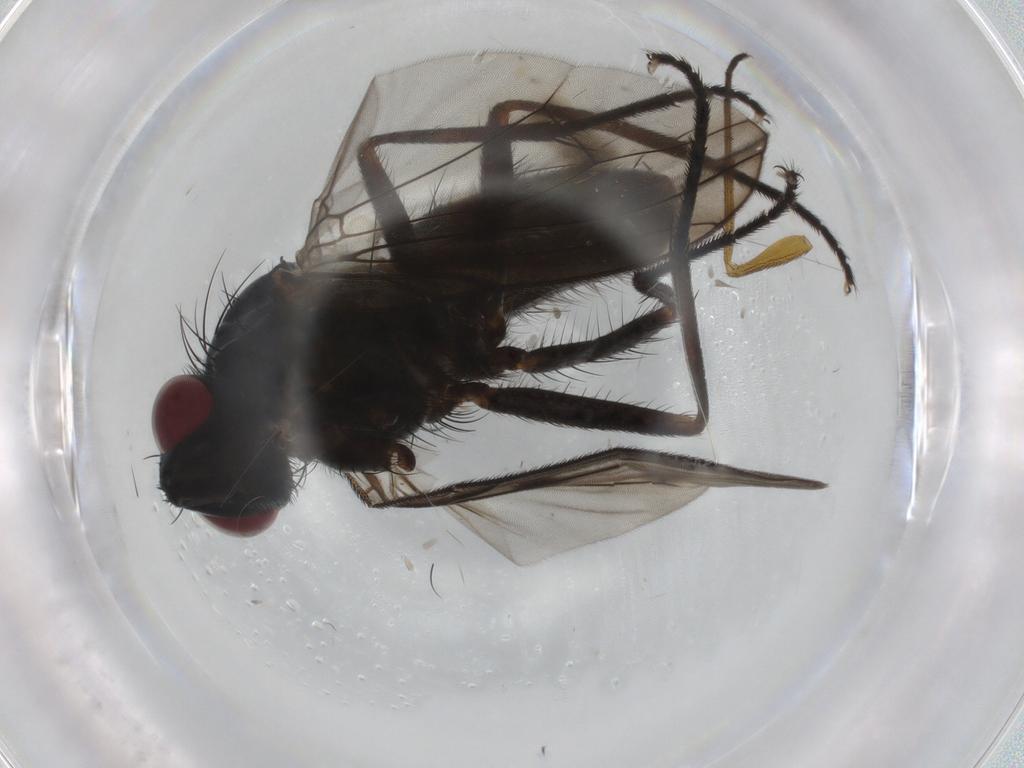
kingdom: Animalia
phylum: Arthropoda
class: Insecta
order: Diptera
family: Muscidae
